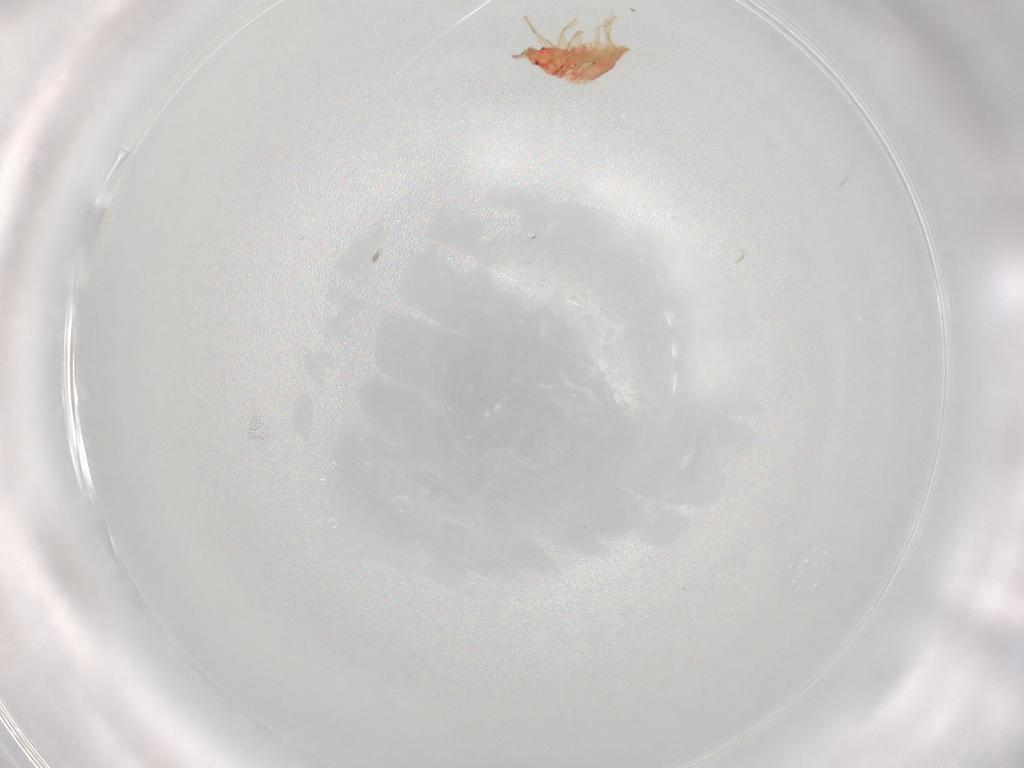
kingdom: Animalia
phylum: Arthropoda
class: Insecta
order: Hemiptera
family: Anthocoridae
